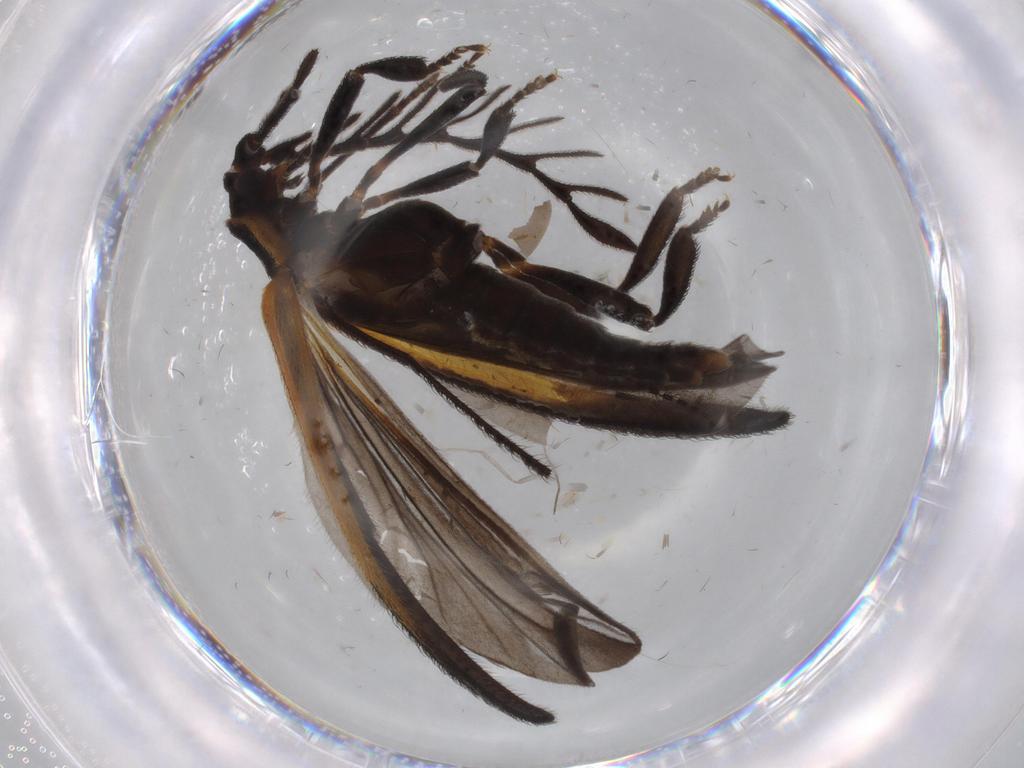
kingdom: Animalia
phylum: Arthropoda
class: Insecta
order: Coleoptera
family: Lycidae
